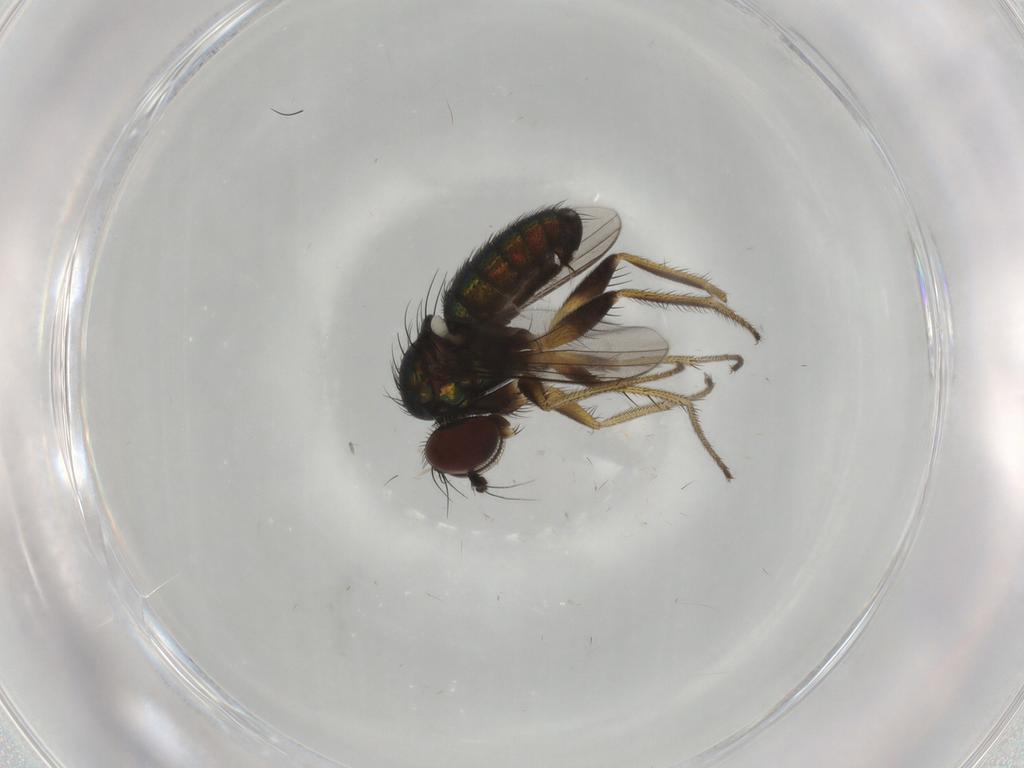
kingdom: Animalia
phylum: Arthropoda
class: Insecta
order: Diptera
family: Dolichopodidae
